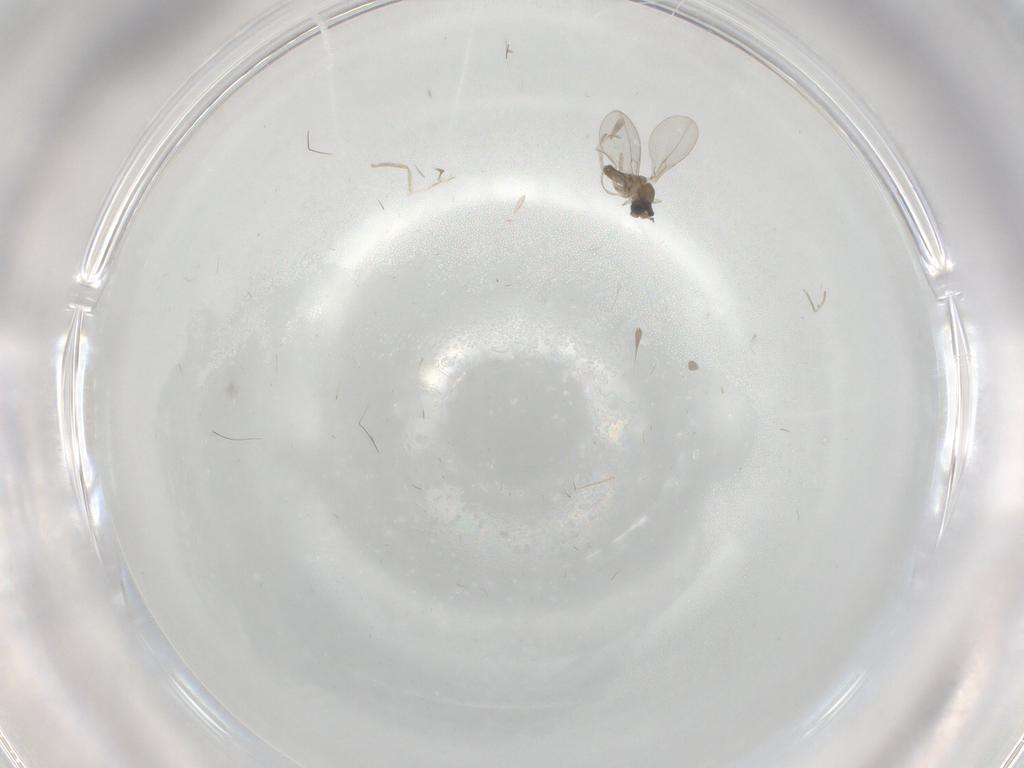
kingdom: Animalia
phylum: Arthropoda
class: Insecta
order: Diptera
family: Cecidomyiidae
